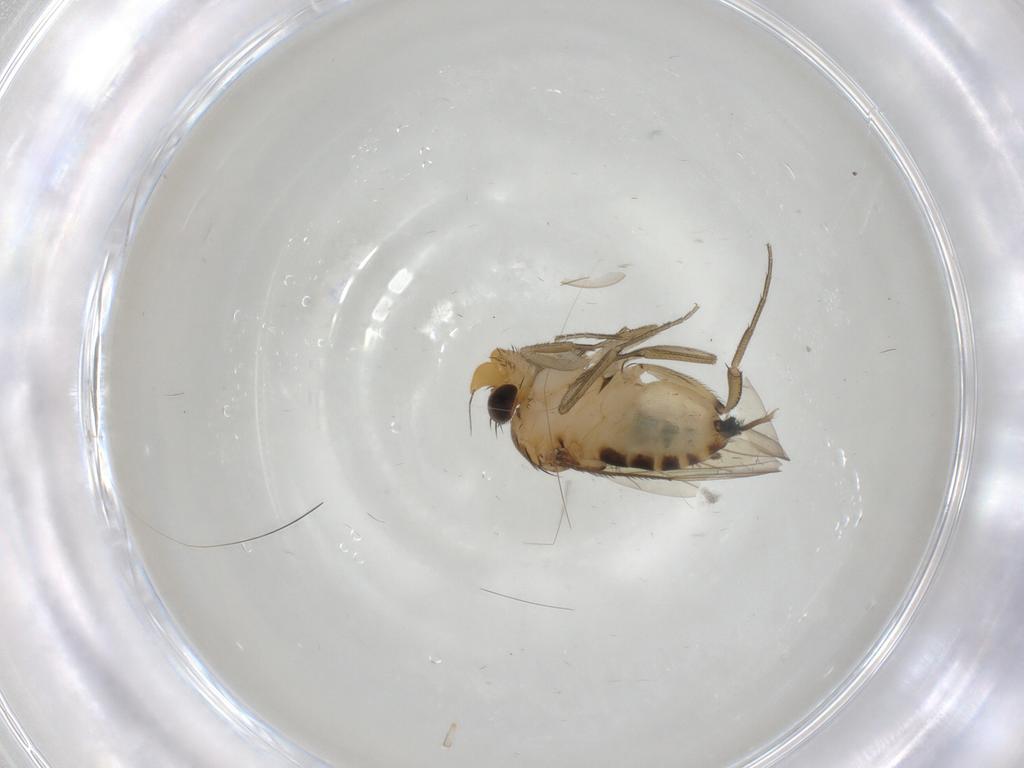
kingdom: Animalia
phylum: Arthropoda
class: Insecta
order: Diptera
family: Phoridae
